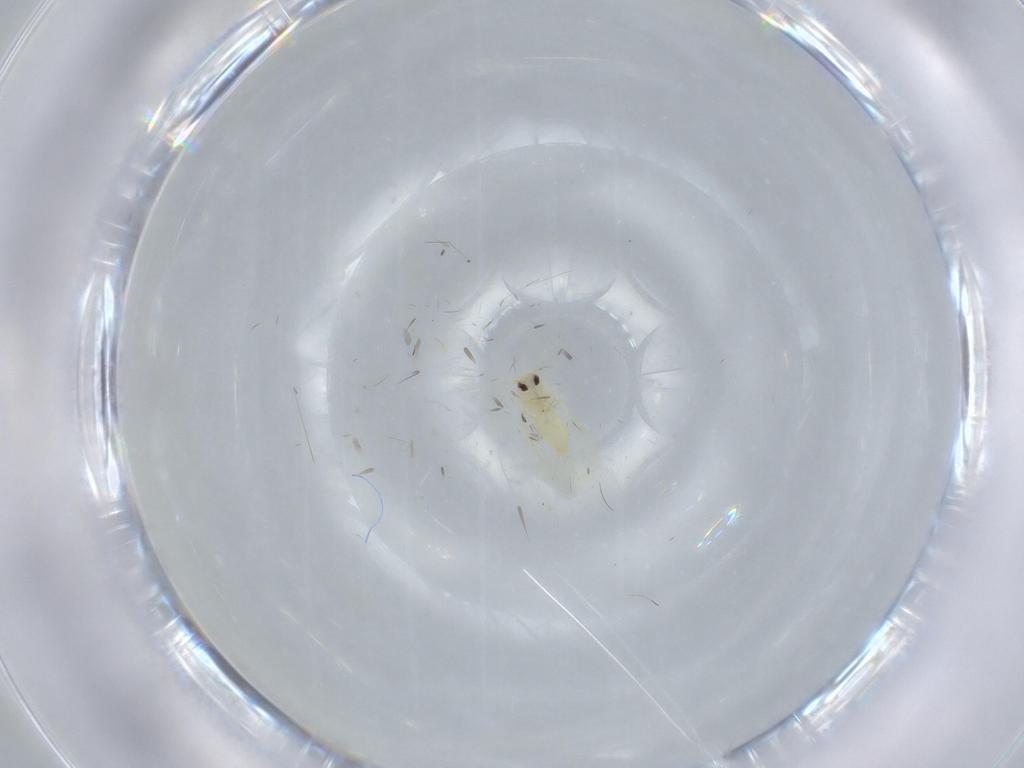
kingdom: Animalia
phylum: Arthropoda
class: Insecta
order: Hemiptera
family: Aleyrodidae
